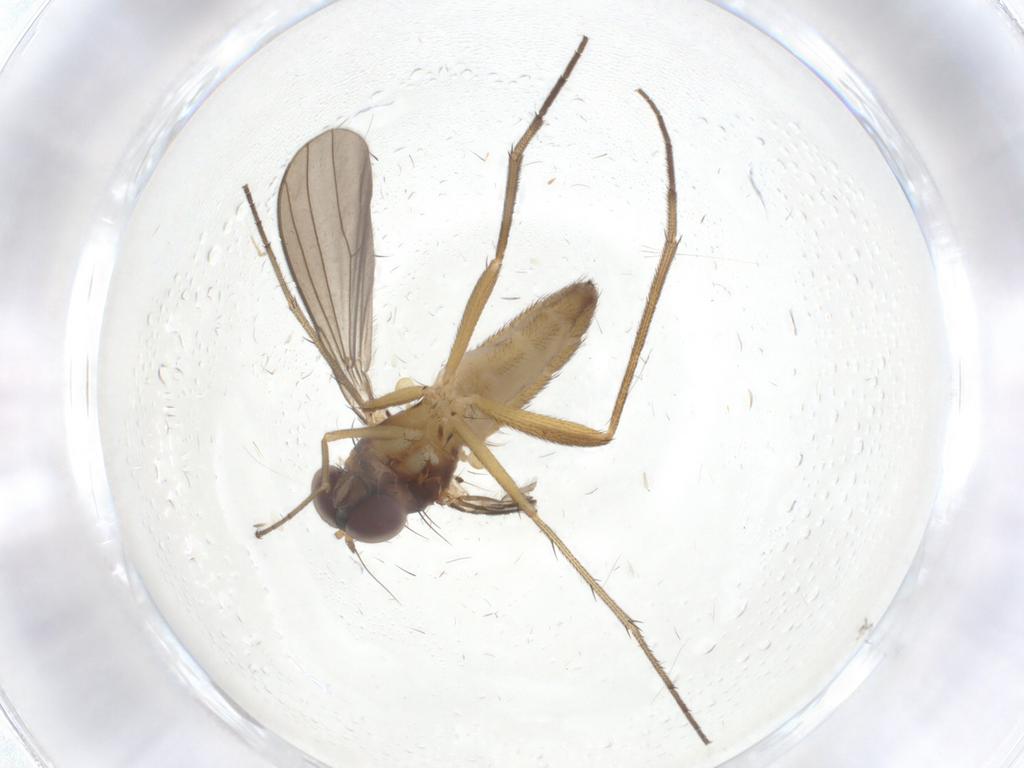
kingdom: Animalia
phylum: Arthropoda
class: Insecta
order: Diptera
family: Dolichopodidae
